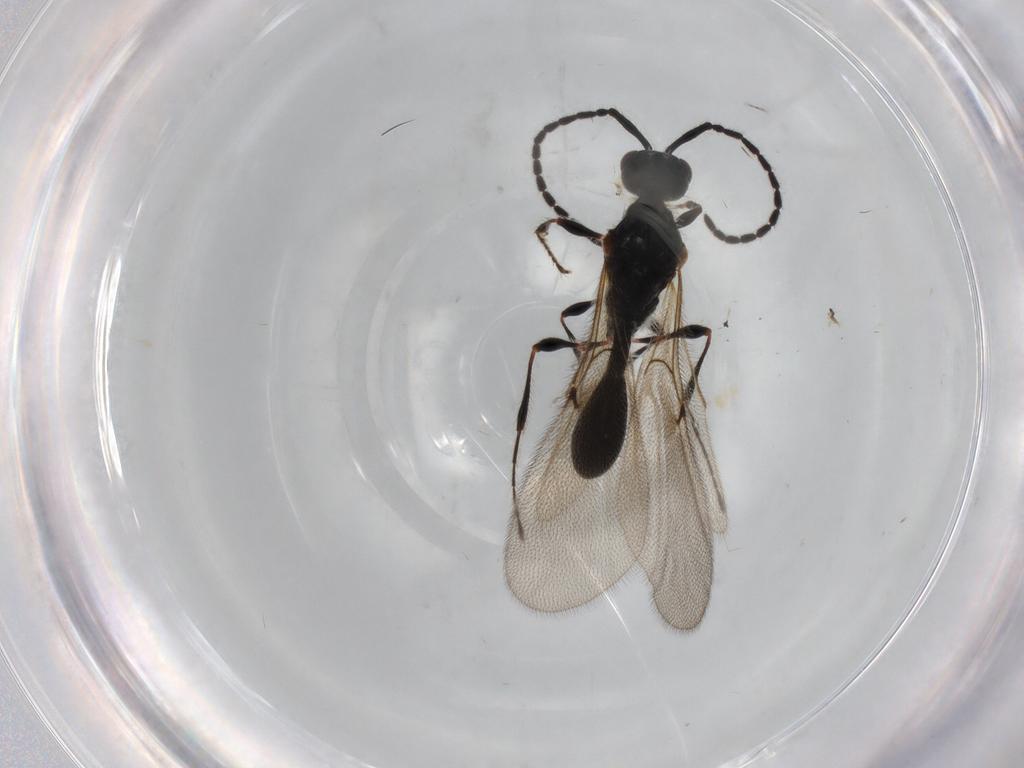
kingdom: Animalia
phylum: Arthropoda
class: Insecta
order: Hymenoptera
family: Diapriidae
